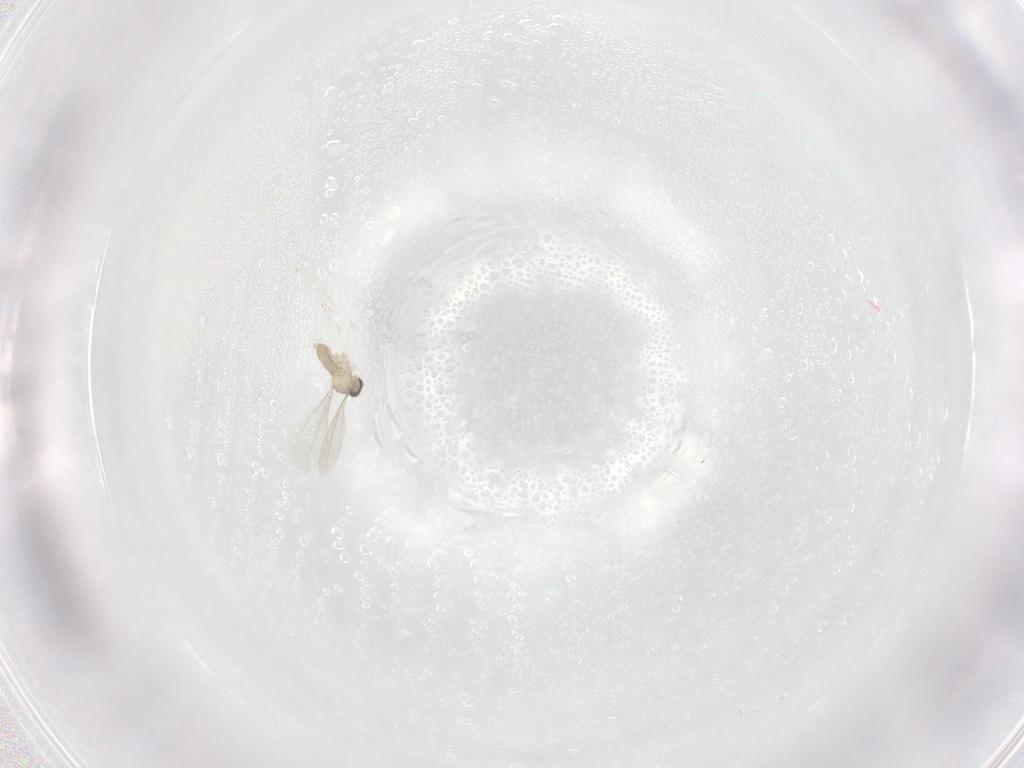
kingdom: Animalia
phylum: Arthropoda
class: Insecta
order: Diptera
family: Cecidomyiidae
